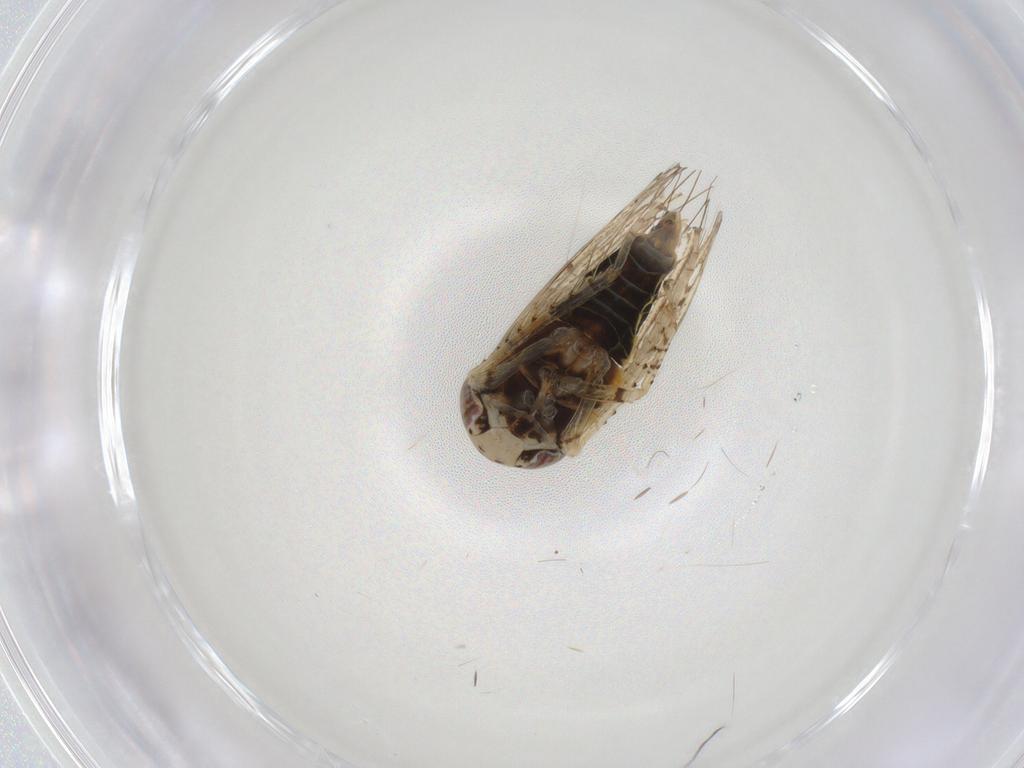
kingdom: Animalia
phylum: Arthropoda
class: Insecta
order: Hemiptera
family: Cicadellidae
